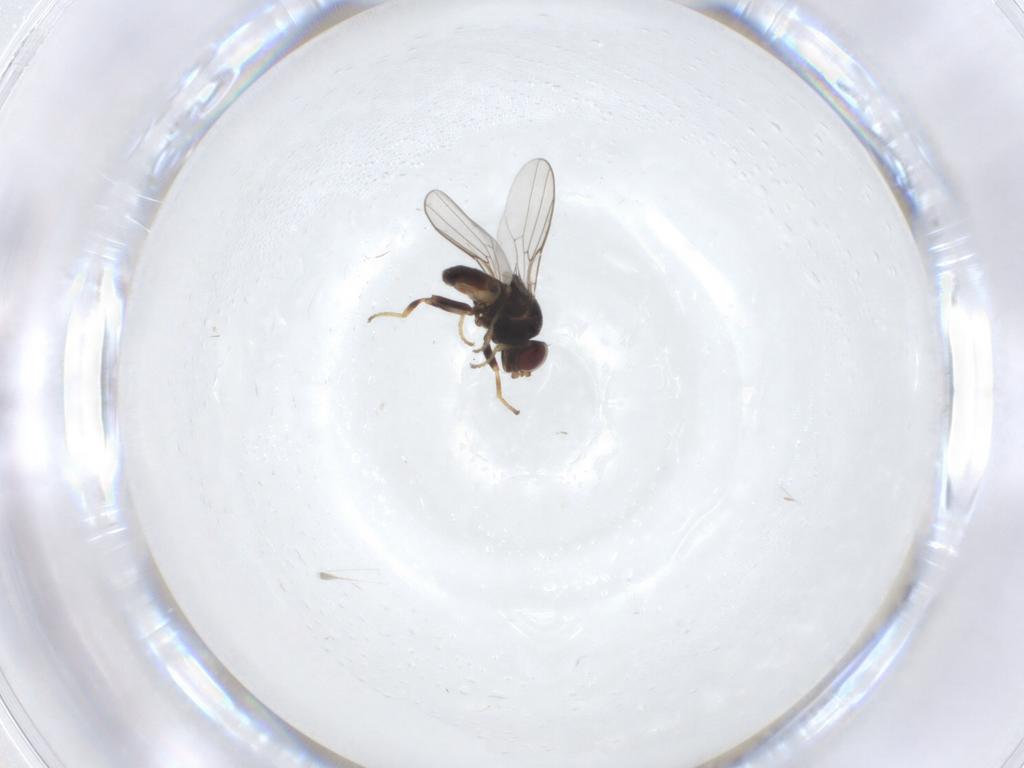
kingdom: Animalia
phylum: Arthropoda
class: Insecta
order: Diptera
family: Chloropidae
